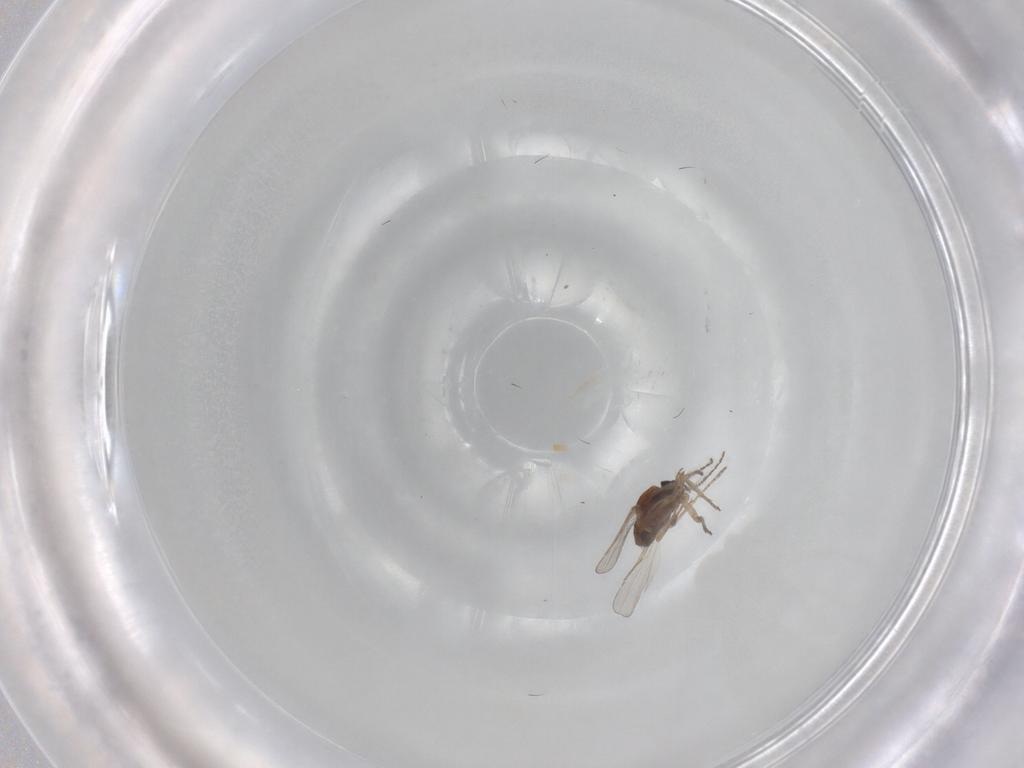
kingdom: Animalia
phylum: Arthropoda
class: Insecta
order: Diptera
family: Ceratopogonidae
